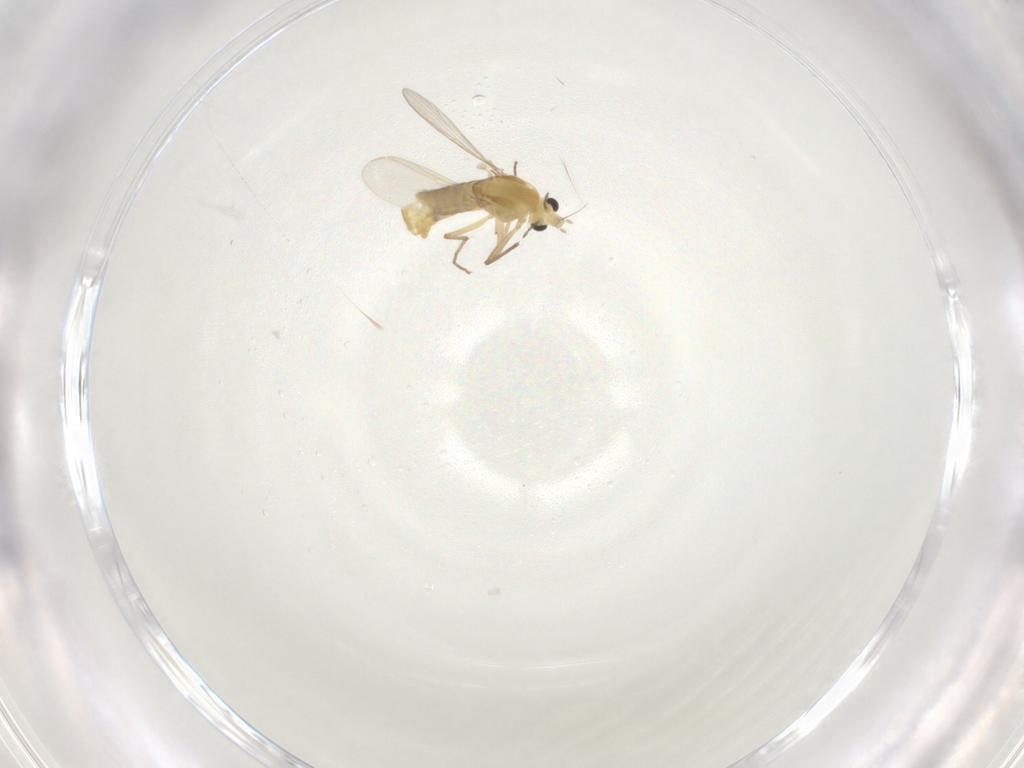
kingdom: Animalia
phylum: Arthropoda
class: Insecta
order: Diptera
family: Chironomidae
